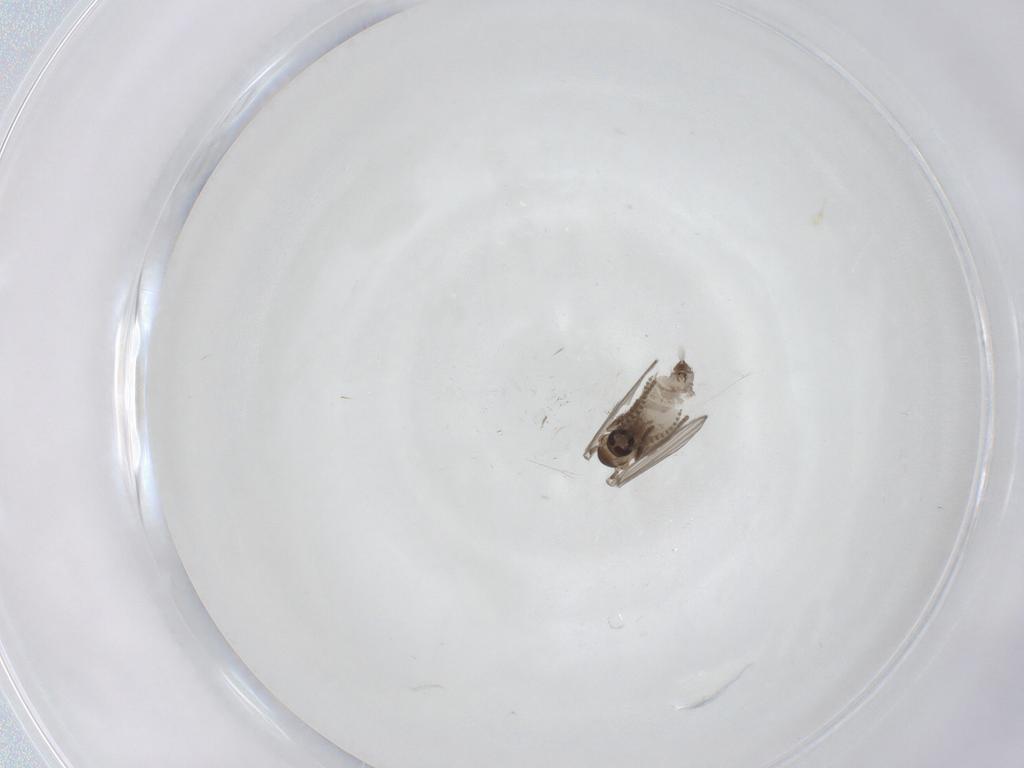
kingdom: Animalia
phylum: Arthropoda
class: Insecta
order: Diptera
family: Psychodidae
